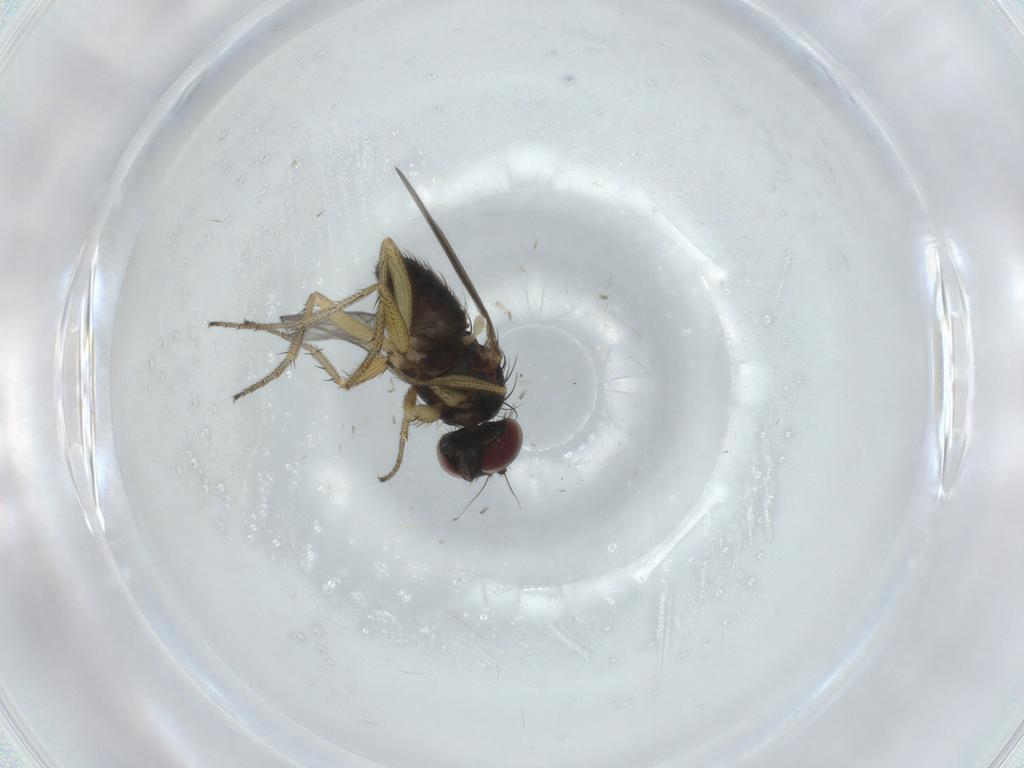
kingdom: Animalia
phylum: Arthropoda
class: Insecta
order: Diptera
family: Dolichopodidae
